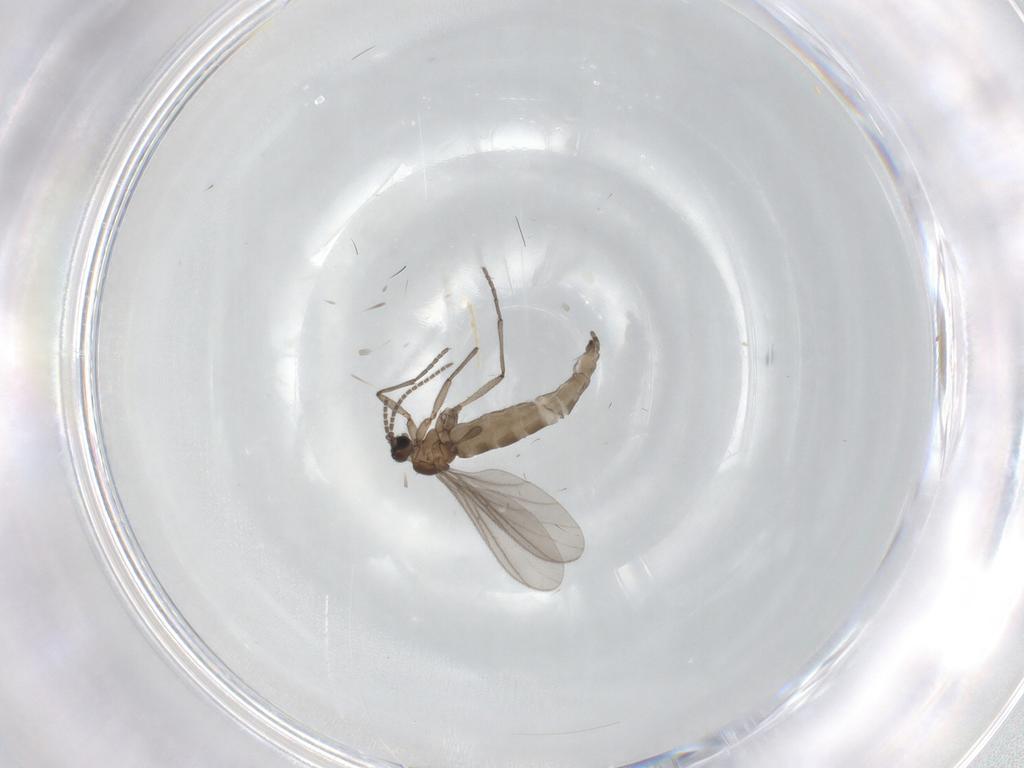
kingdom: Animalia
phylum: Arthropoda
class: Insecta
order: Diptera
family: Sciaridae
